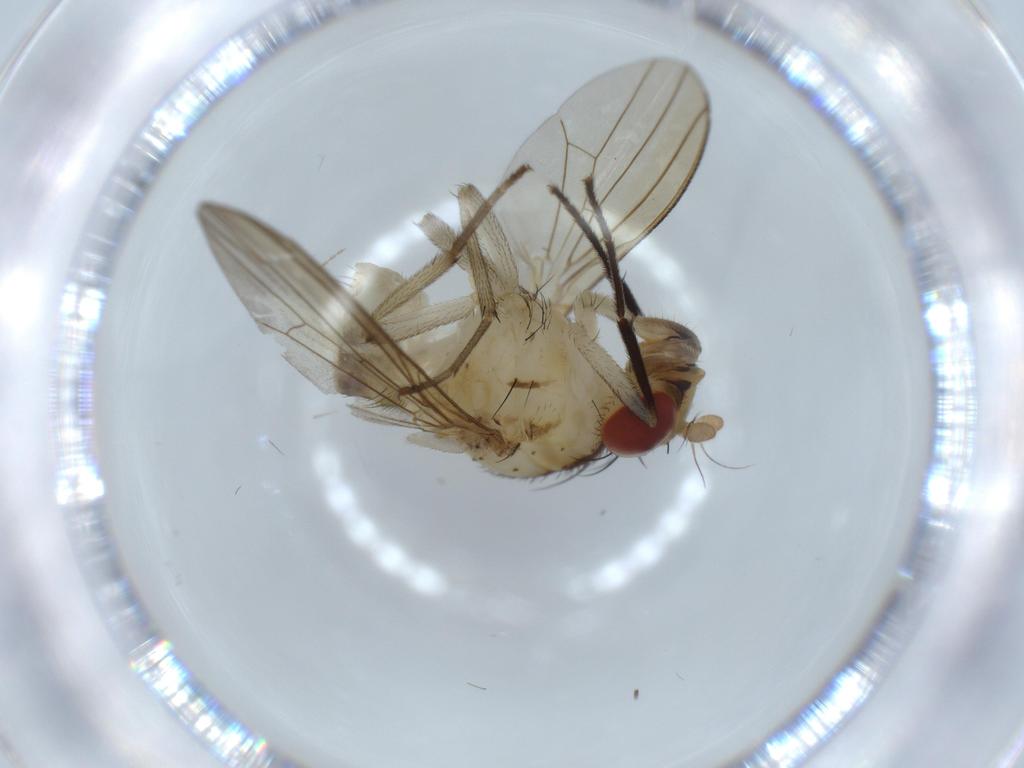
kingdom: Animalia
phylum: Arthropoda
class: Insecta
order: Diptera
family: Lauxaniidae
